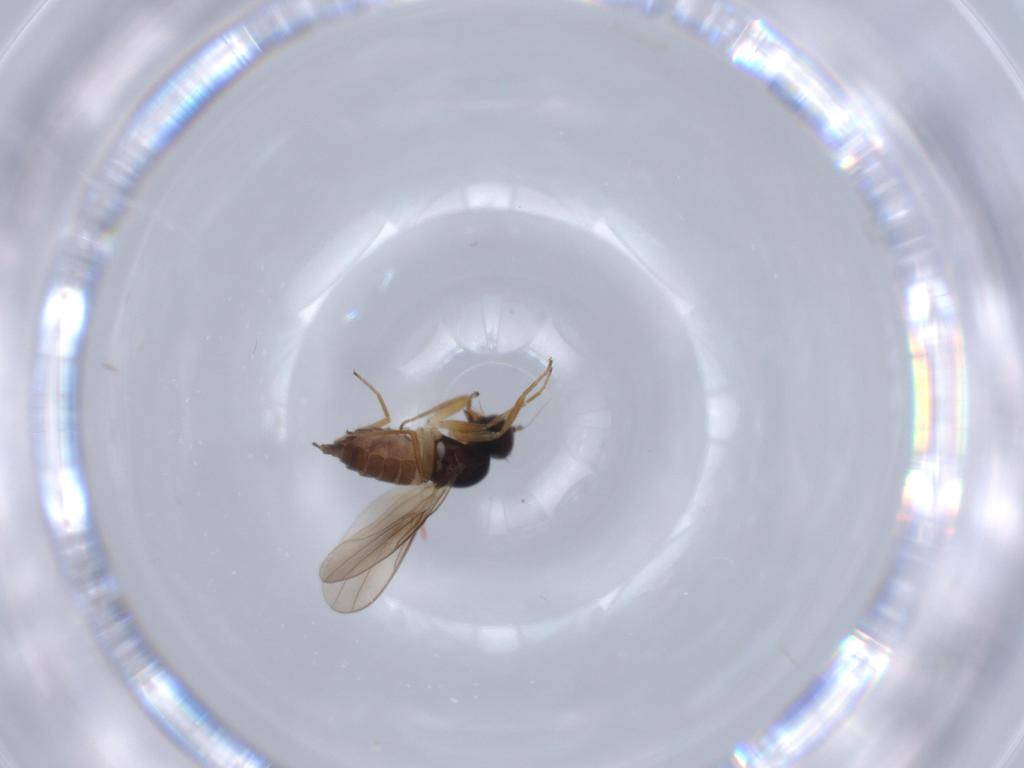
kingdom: Animalia
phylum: Arthropoda
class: Insecta
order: Diptera
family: Hybotidae
